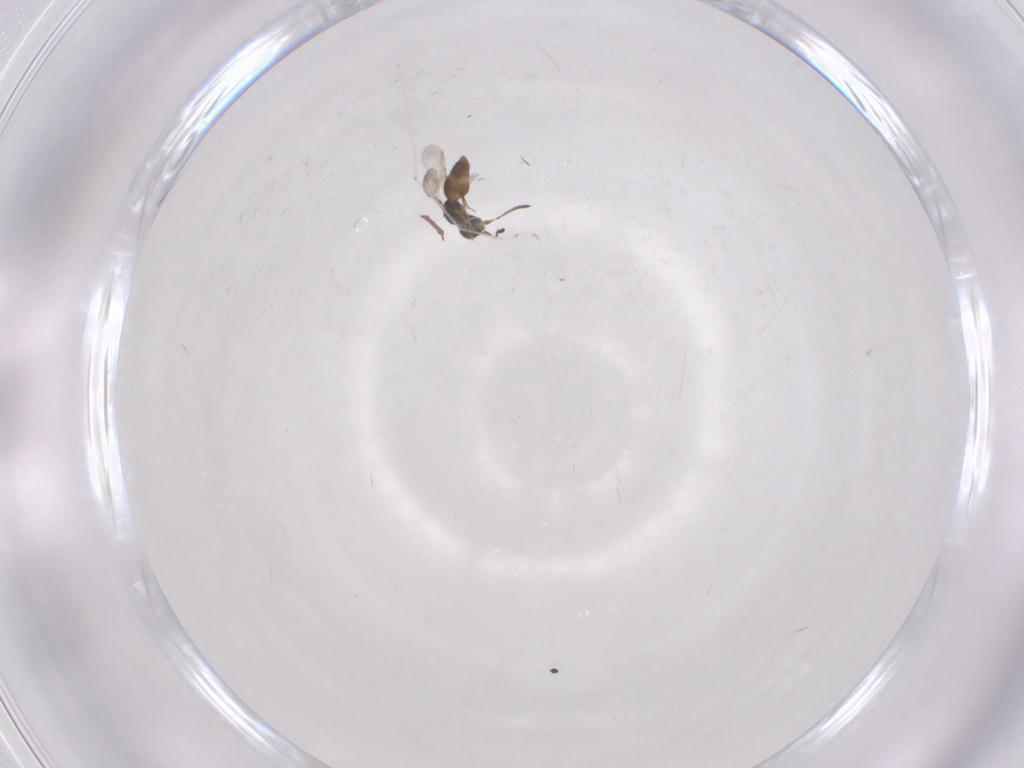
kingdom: Animalia
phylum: Arthropoda
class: Insecta
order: Diptera
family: Cecidomyiidae
